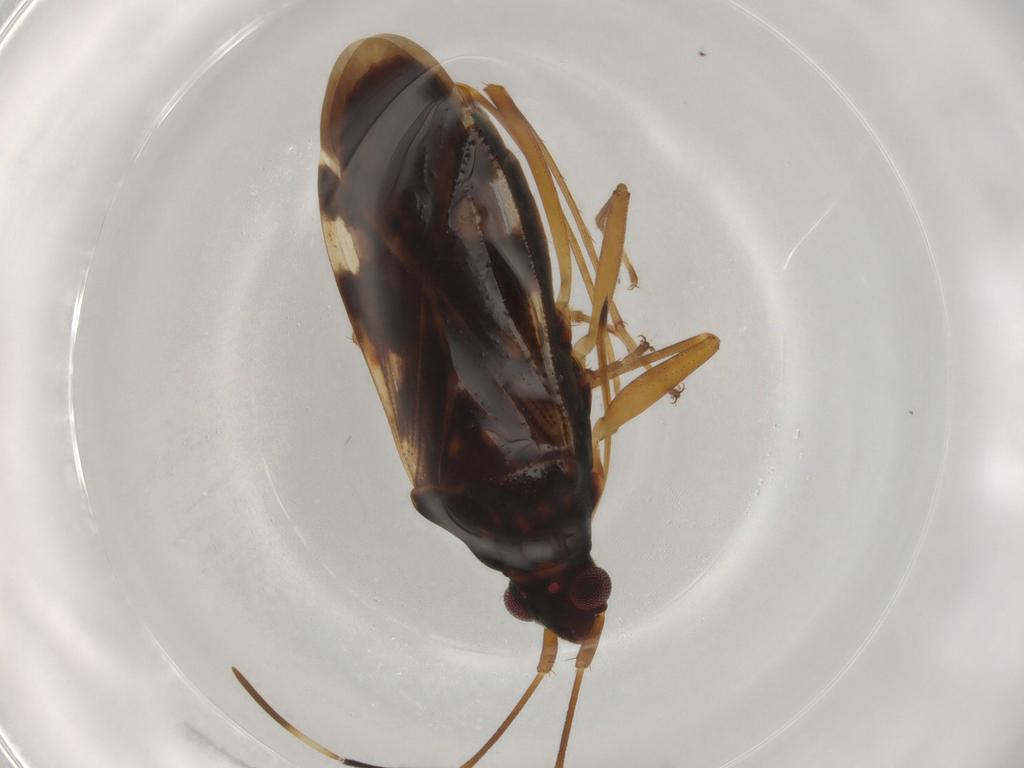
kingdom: Animalia
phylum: Arthropoda
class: Insecta
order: Hemiptera
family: Rhyparochromidae
